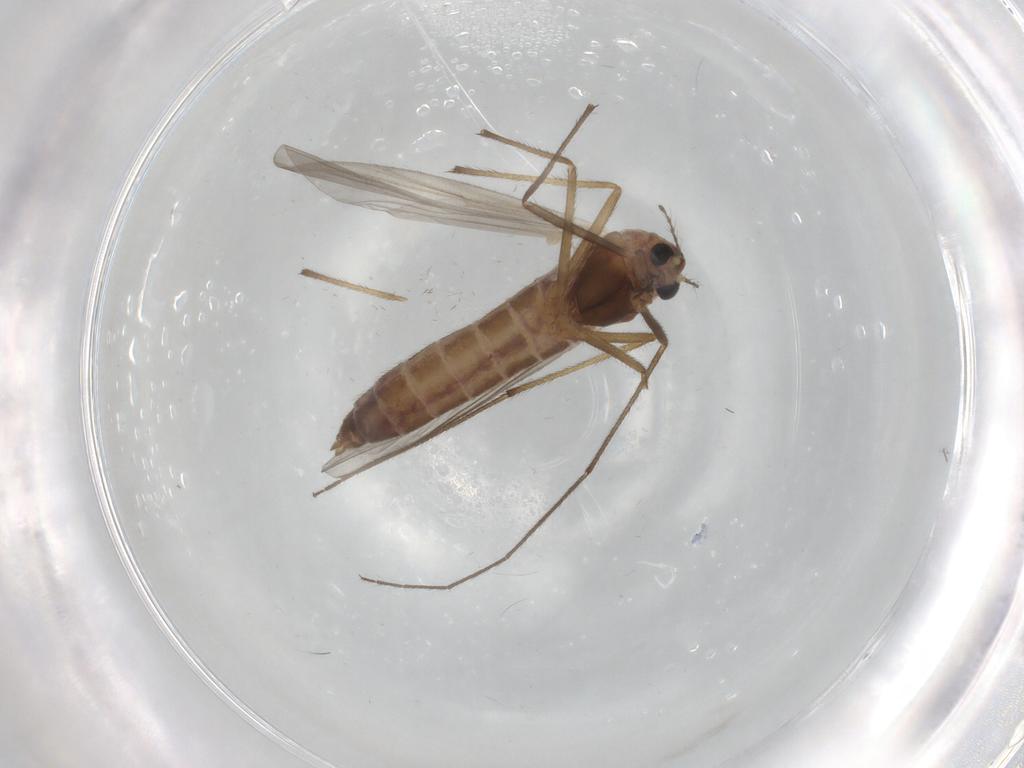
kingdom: Animalia
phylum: Arthropoda
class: Insecta
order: Diptera
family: Chironomidae
